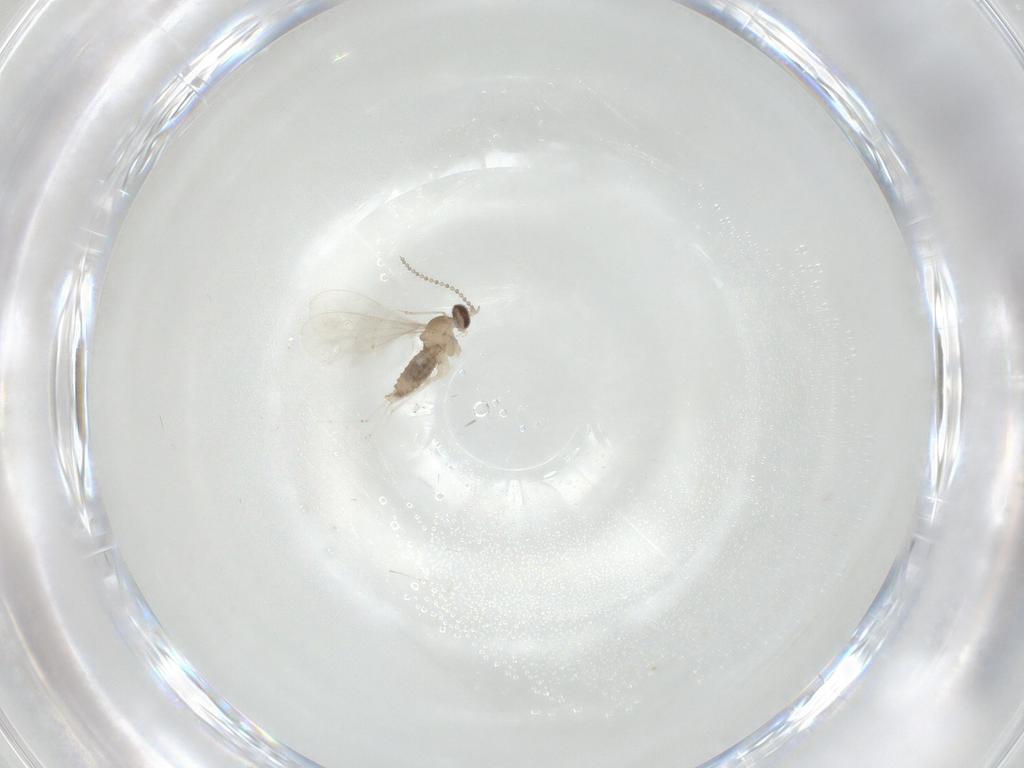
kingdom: Animalia
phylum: Arthropoda
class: Insecta
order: Diptera
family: Cecidomyiidae
